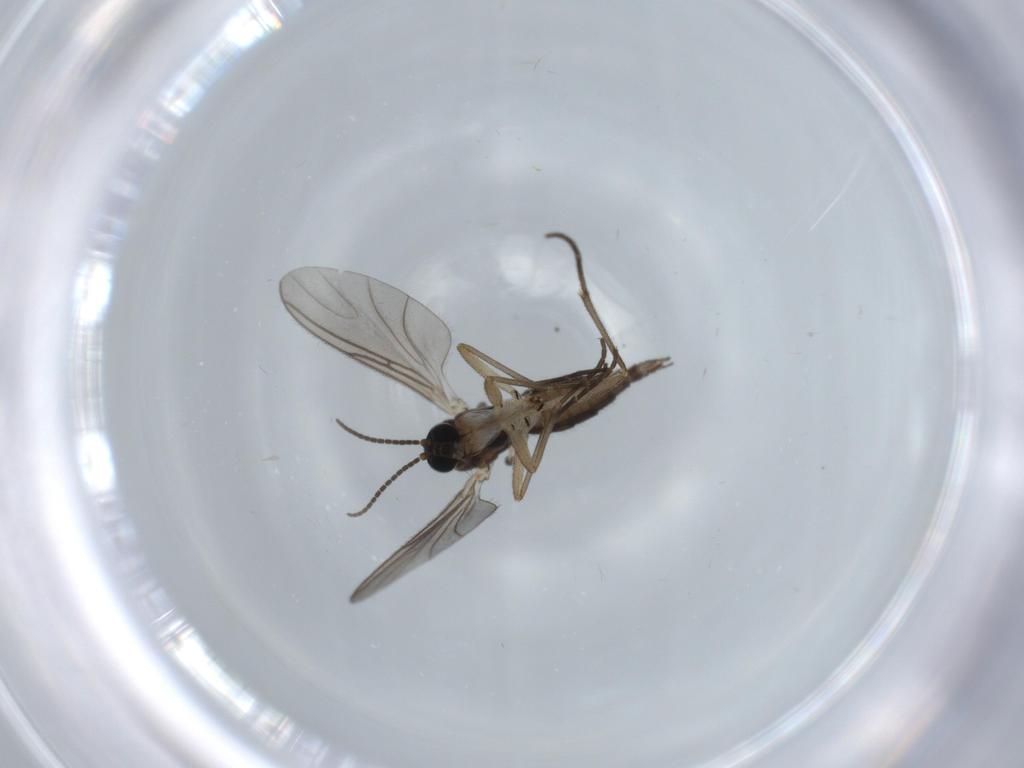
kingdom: Animalia
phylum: Arthropoda
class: Insecta
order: Diptera
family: Sciaridae
